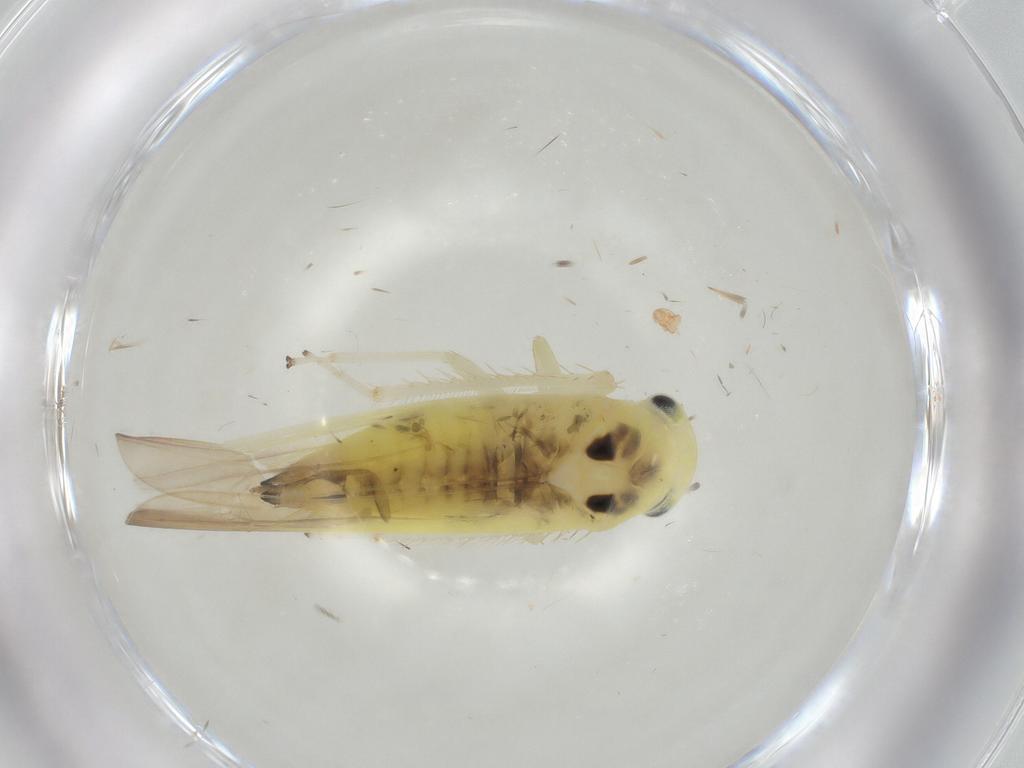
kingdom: Animalia
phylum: Arthropoda
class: Insecta
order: Hemiptera
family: Cicadellidae
